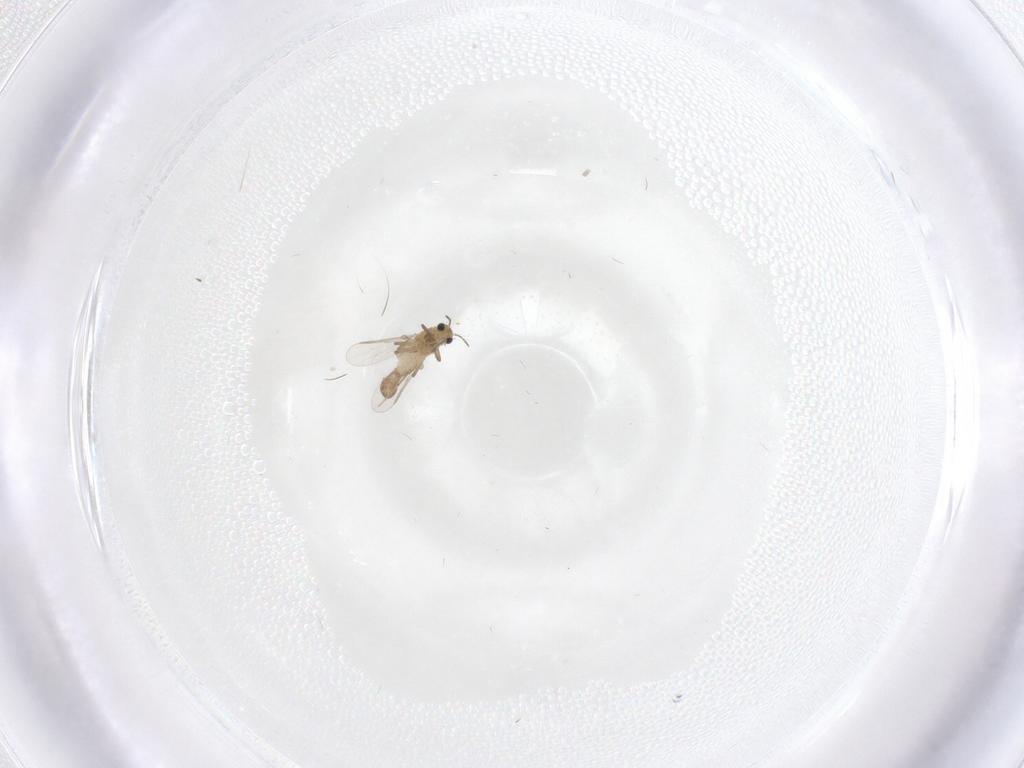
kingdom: Animalia
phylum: Arthropoda
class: Insecta
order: Diptera
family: Chironomidae
